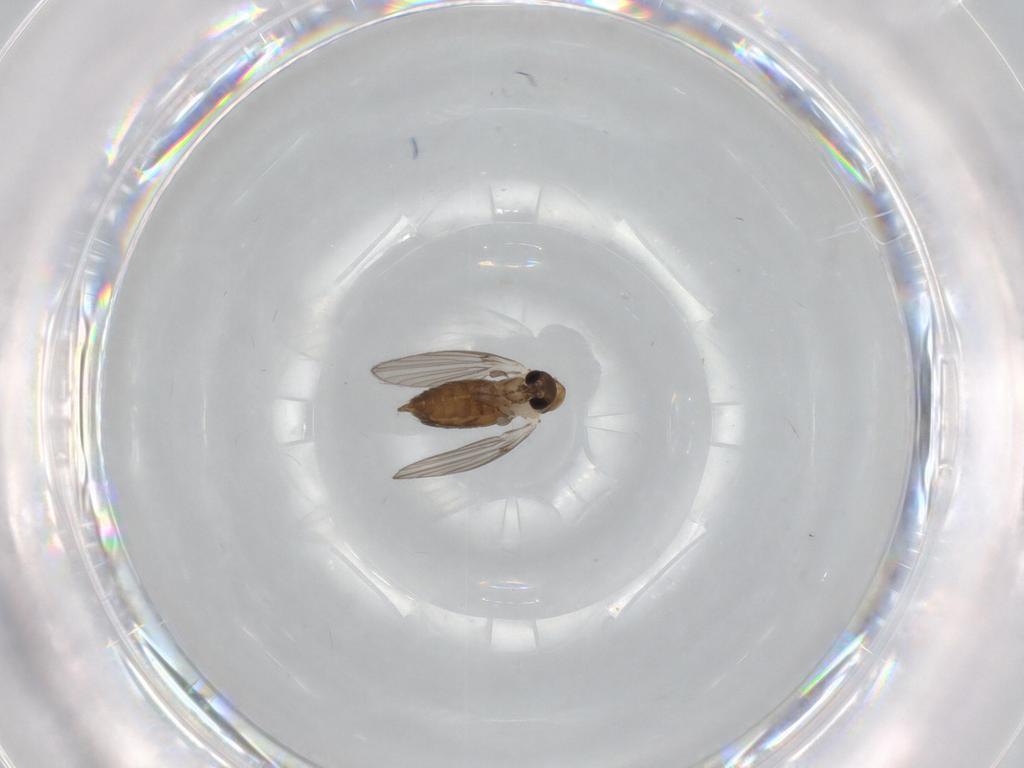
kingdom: Animalia
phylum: Arthropoda
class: Insecta
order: Diptera
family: Psychodidae
